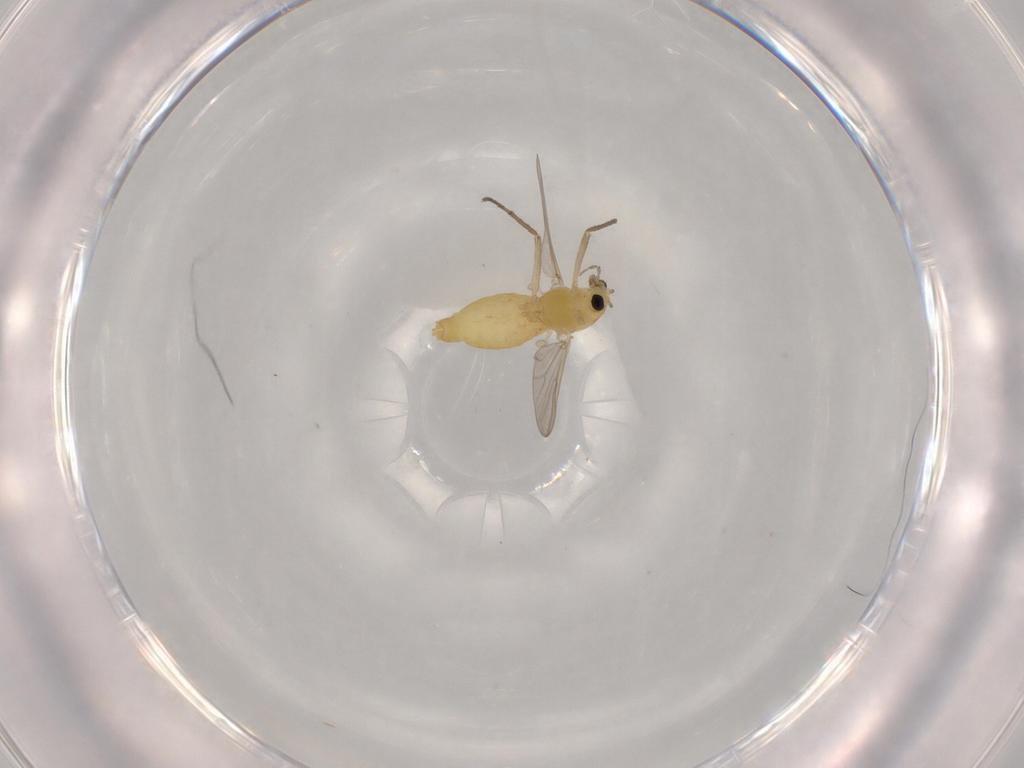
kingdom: Animalia
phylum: Arthropoda
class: Insecta
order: Diptera
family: Chironomidae
